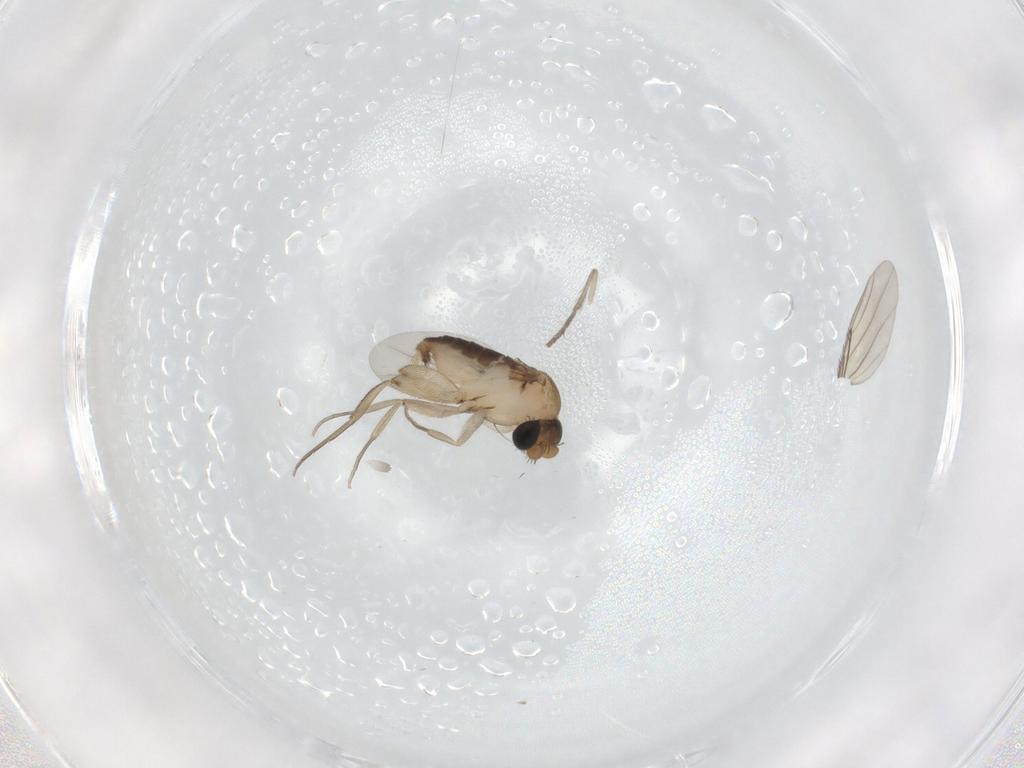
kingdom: Animalia
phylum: Arthropoda
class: Insecta
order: Diptera
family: Phoridae
